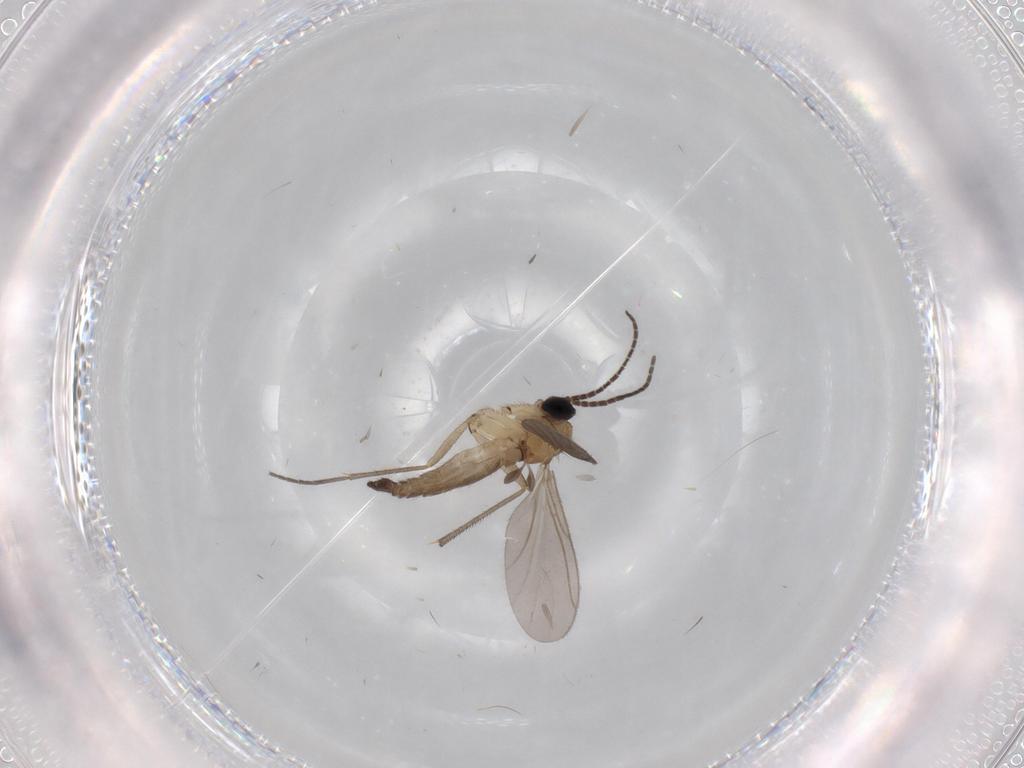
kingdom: Animalia
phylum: Arthropoda
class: Insecta
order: Diptera
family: Sciaridae
